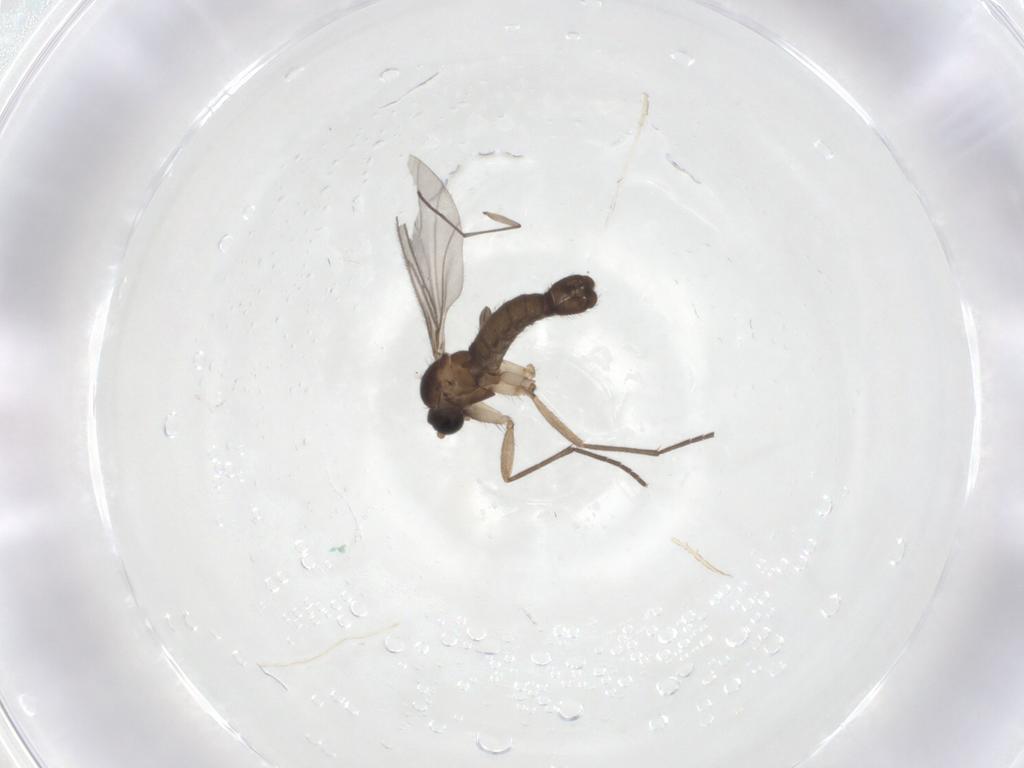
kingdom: Animalia
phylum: Arthropoda
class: Insecta
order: Diptera
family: Sciaridae
